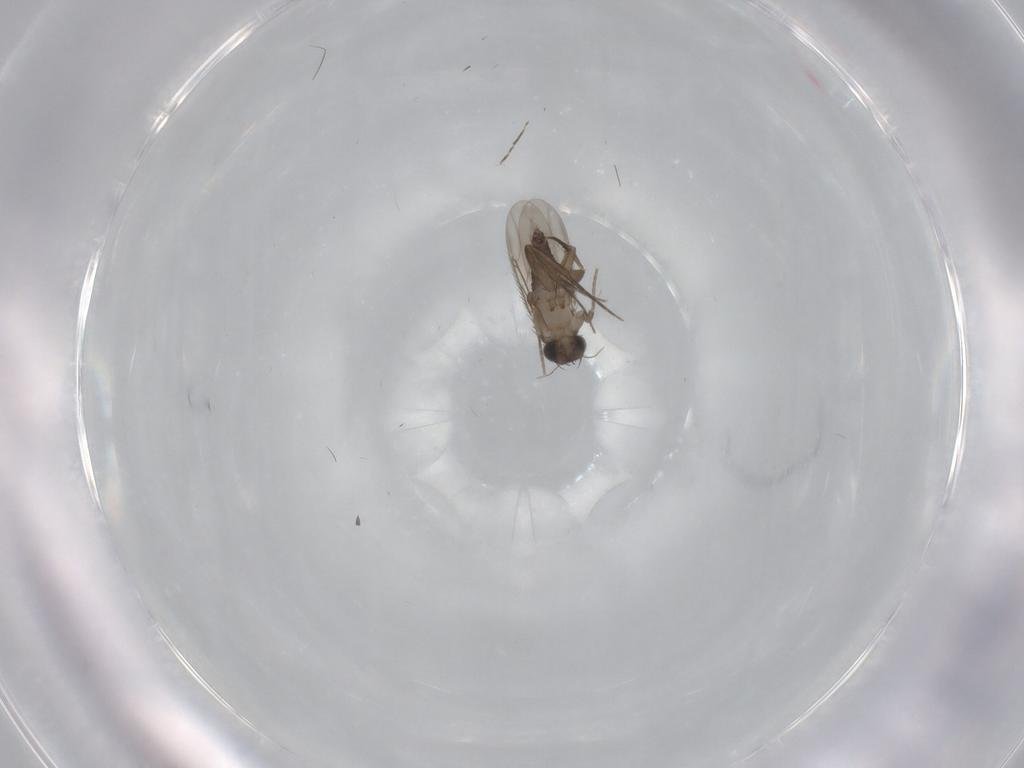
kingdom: Animalia
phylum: Arthropoda
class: Insecta
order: Diptera
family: Phoridae
